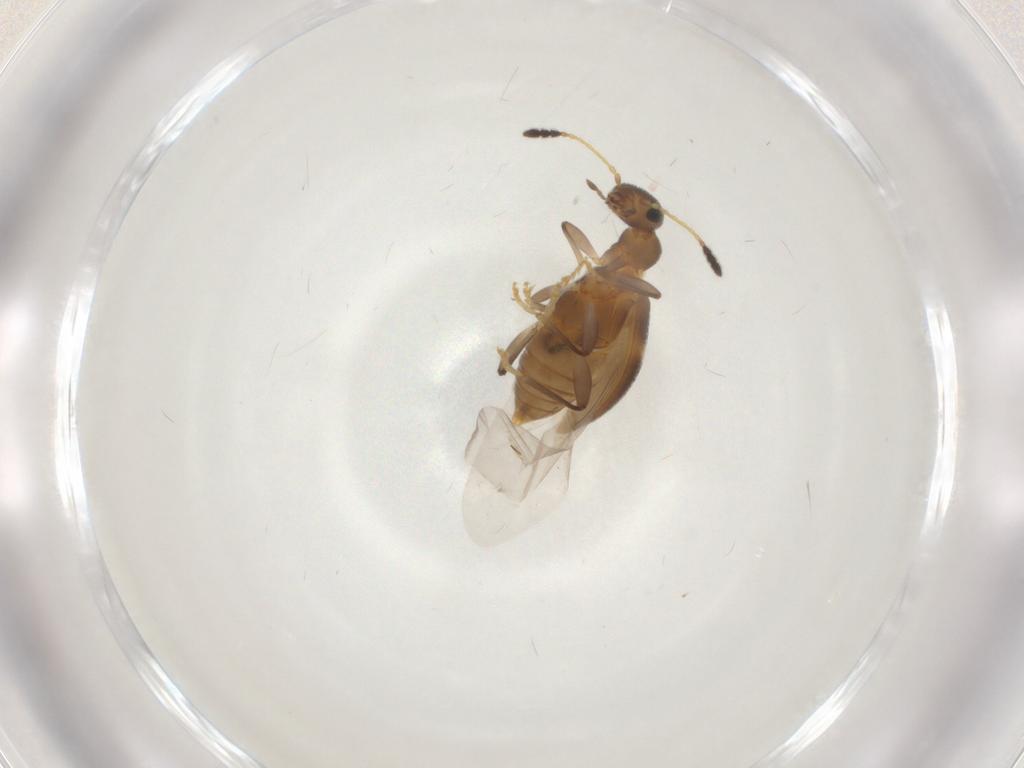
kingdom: Animalia
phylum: Arthropoda
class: Insecta
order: Coleoptera
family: Anthicidae
